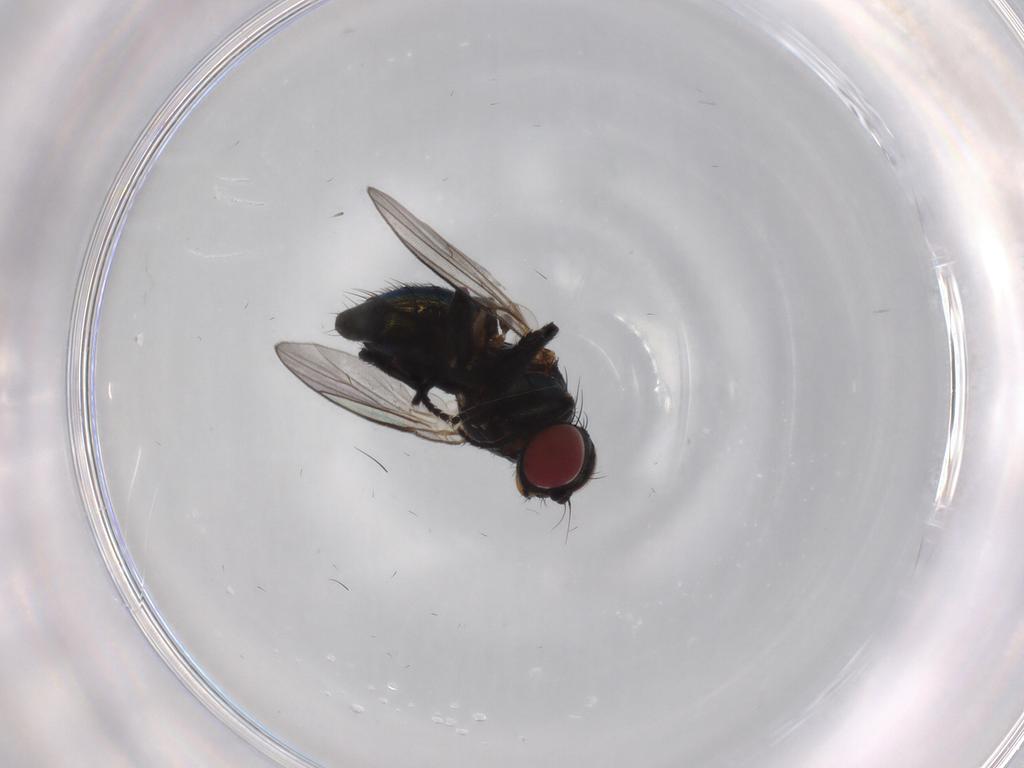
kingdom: Animalia
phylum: Arthropoda
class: Insecta
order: Diptera
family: Agromyzidae
